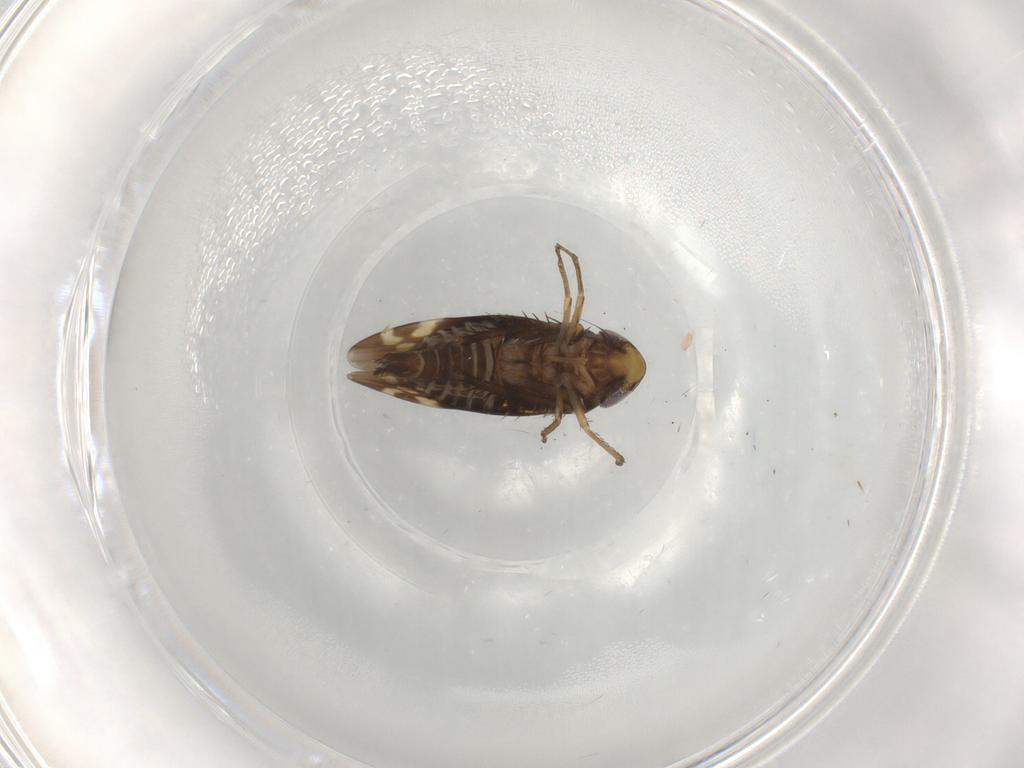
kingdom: Animalia
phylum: Arthropoda
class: Insecta
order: Hemiptera
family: Cicadellidae
